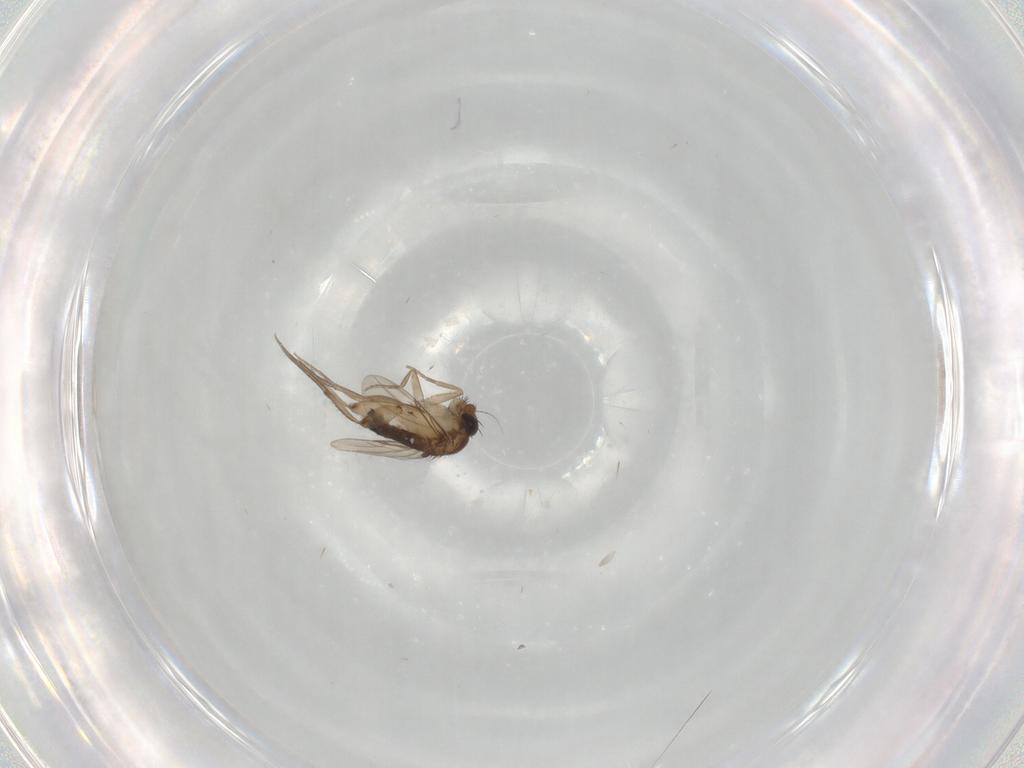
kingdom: Animalia
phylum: Arthropoda
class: Insecta
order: Diptera
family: Phoridae
